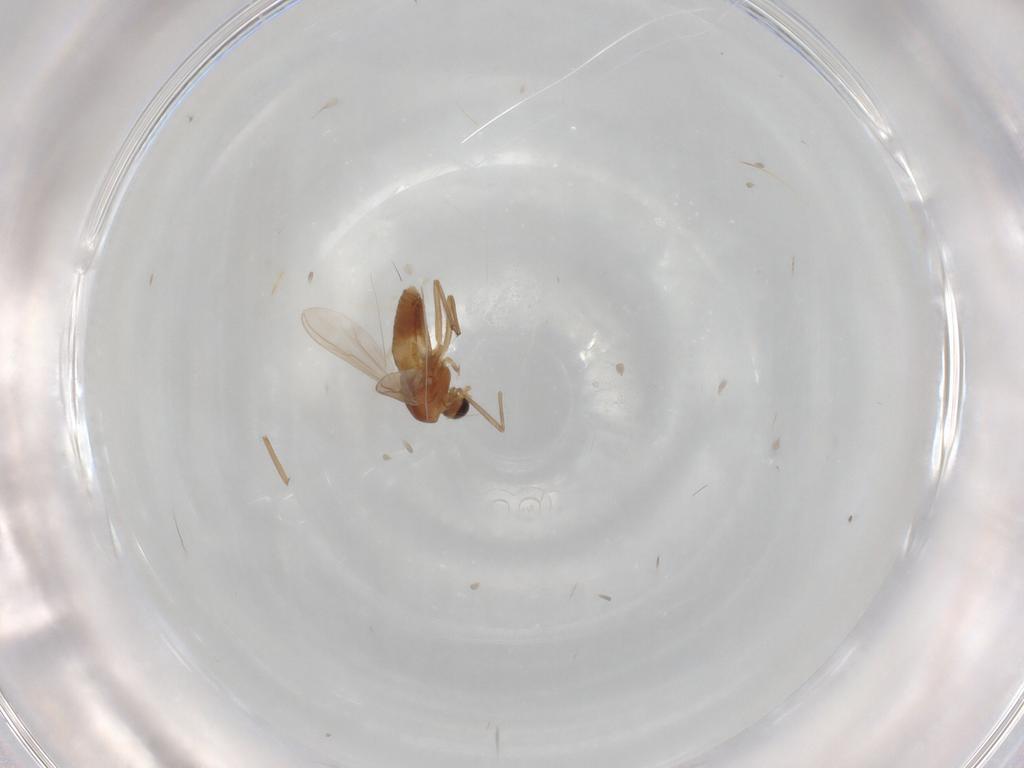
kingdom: Animalia
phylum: Arthropoda
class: Insecta
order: Diptera
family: Chironomidae
